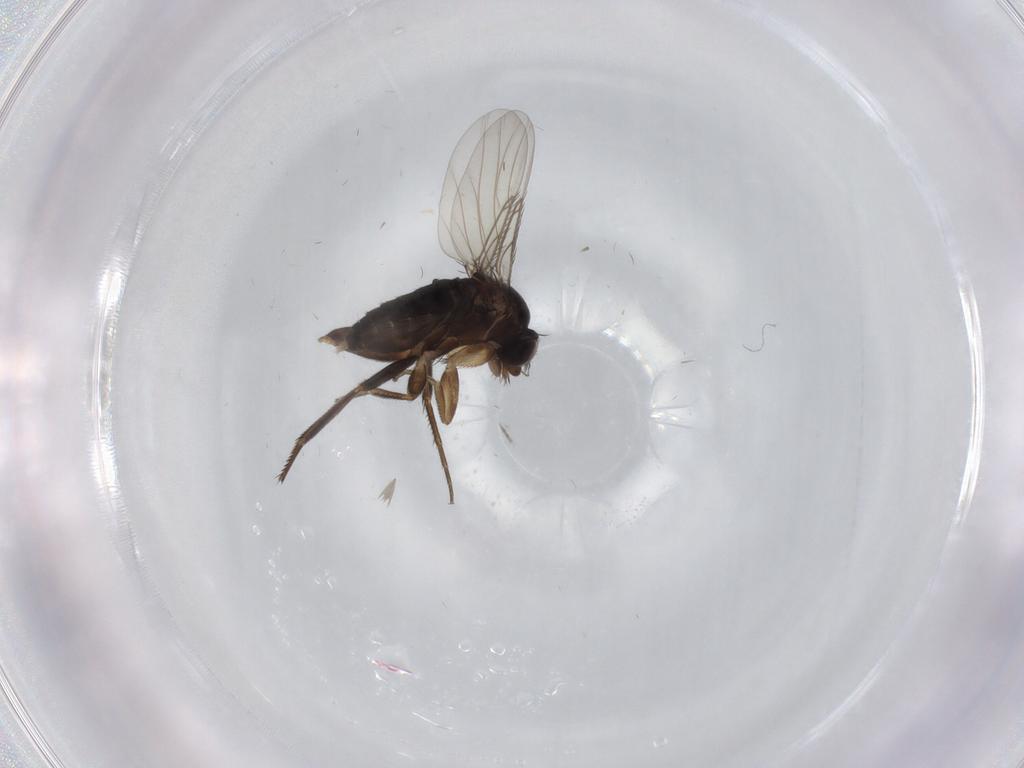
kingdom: Animalia
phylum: Arthropoda
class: Insecta
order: Diptera
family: Phoridae
